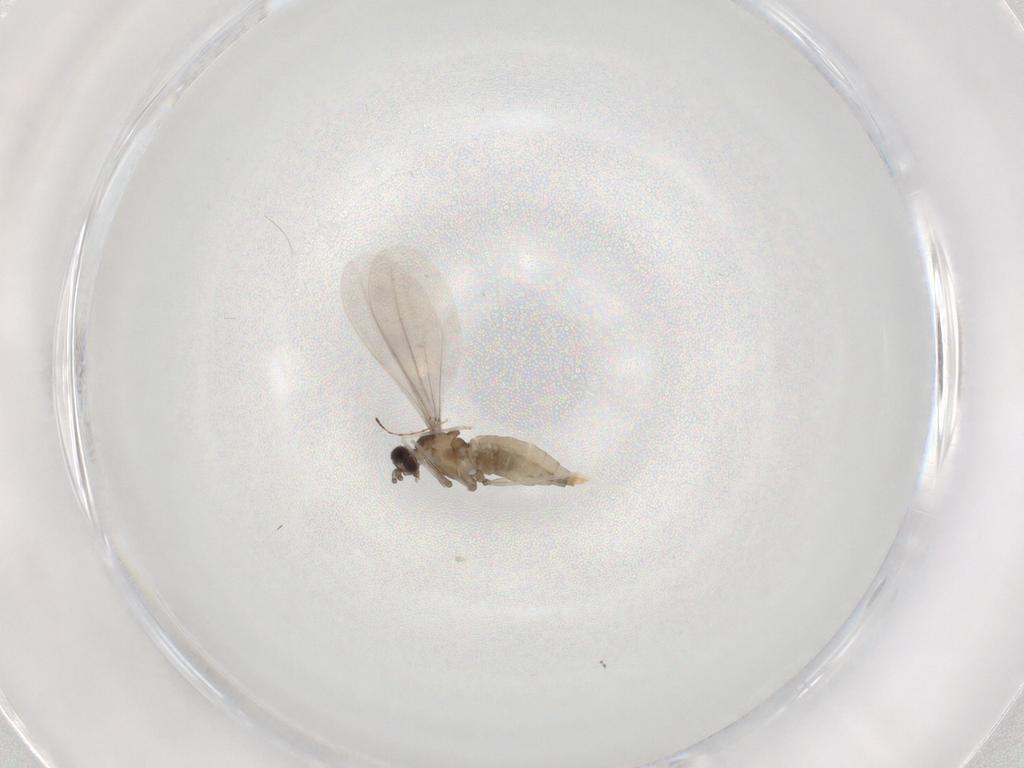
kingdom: Animalia
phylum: Arthropoda
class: Insecta
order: Diptera
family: Cecidomyiidae
